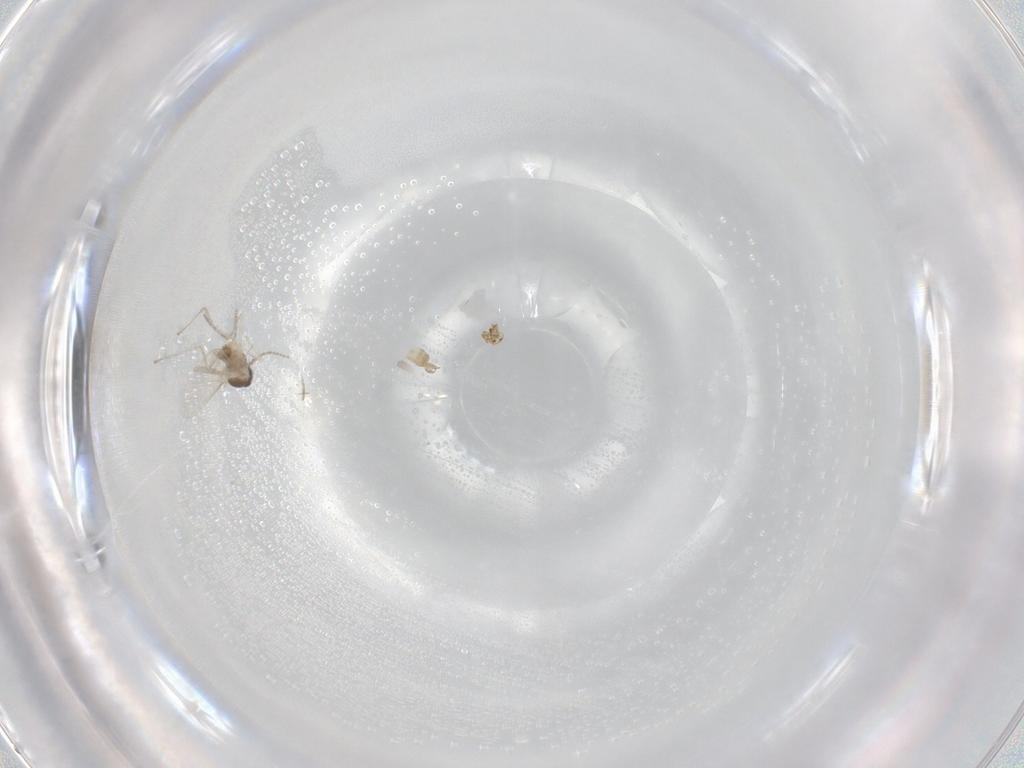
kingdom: Animalia
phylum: Arthropoda
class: Insecta
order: Diptera
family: Cecidomyiidae
